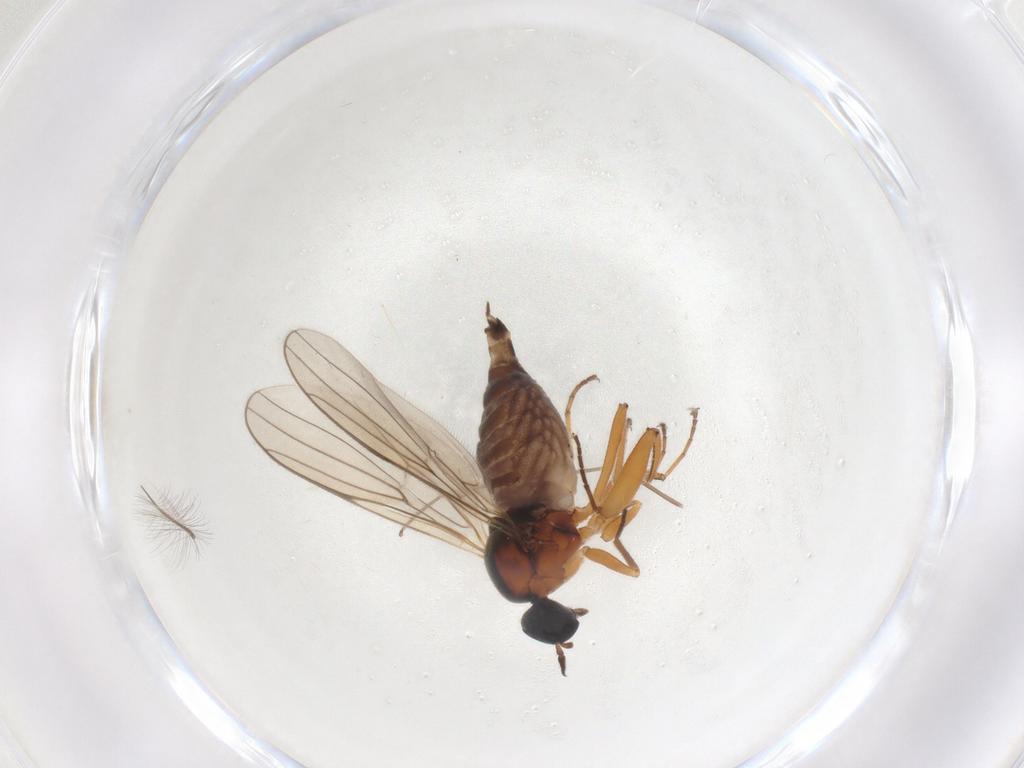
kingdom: Animalia
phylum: Arthropoda
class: Insecta
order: Diptera
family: Hybotidae
